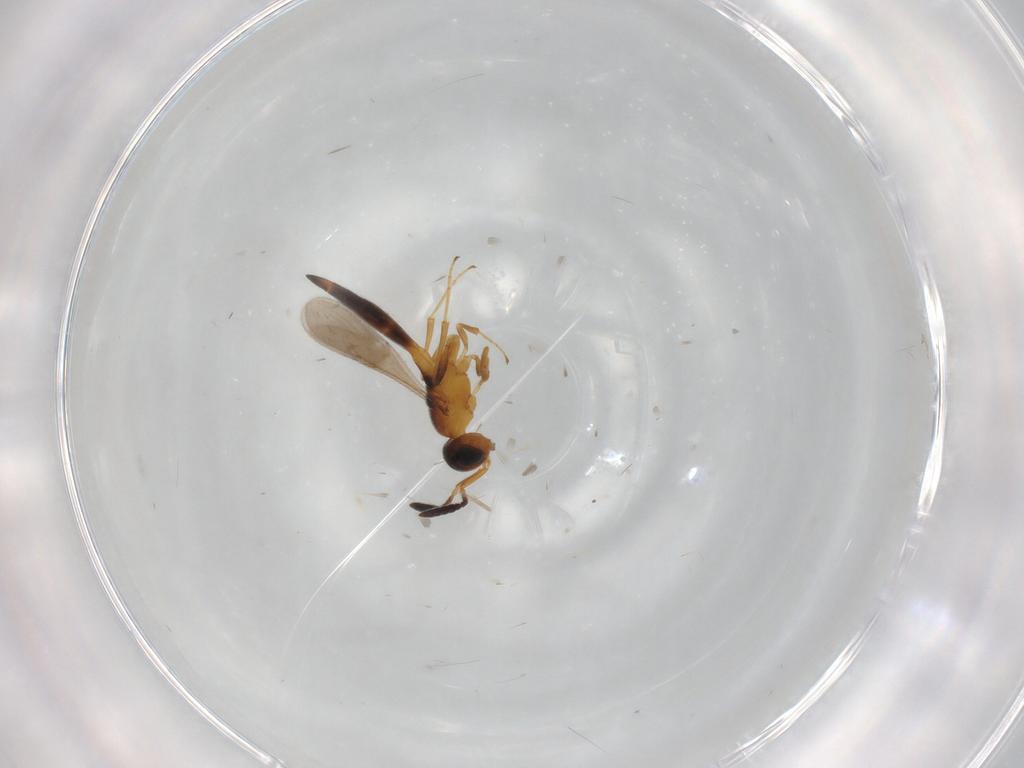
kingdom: Animalia
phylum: Arthropoda
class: Insecta
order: Hymenoptera
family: Scelionidae
